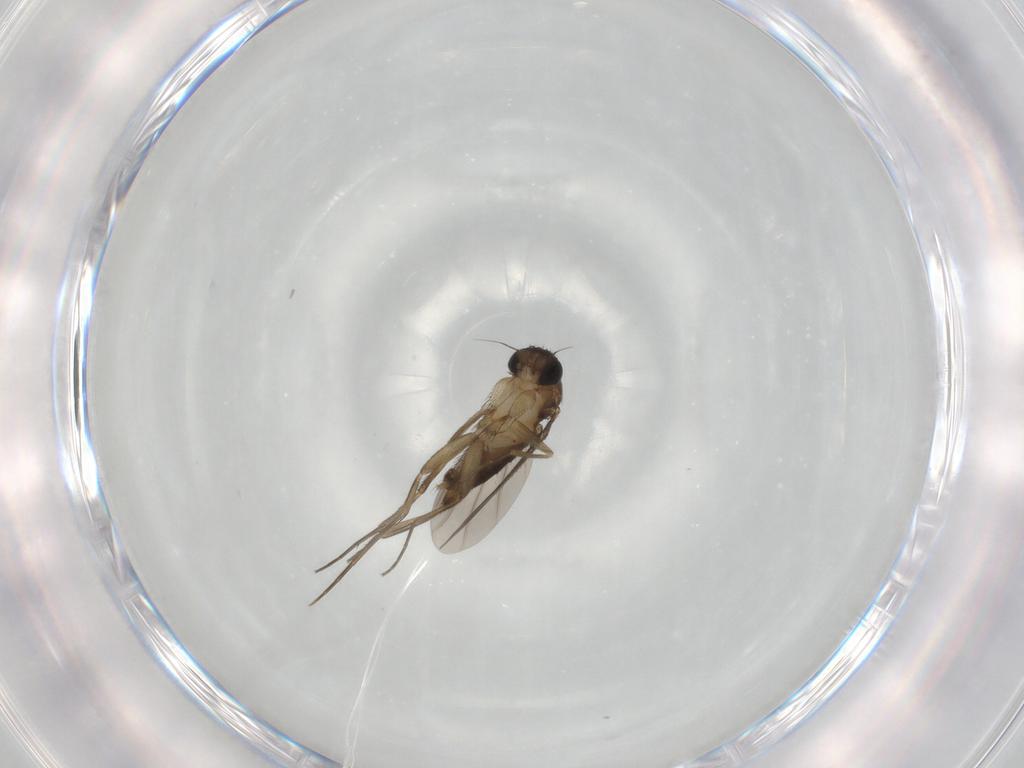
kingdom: Animalia
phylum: Arthropoda
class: Insecta
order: Diptera
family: Phoridae
